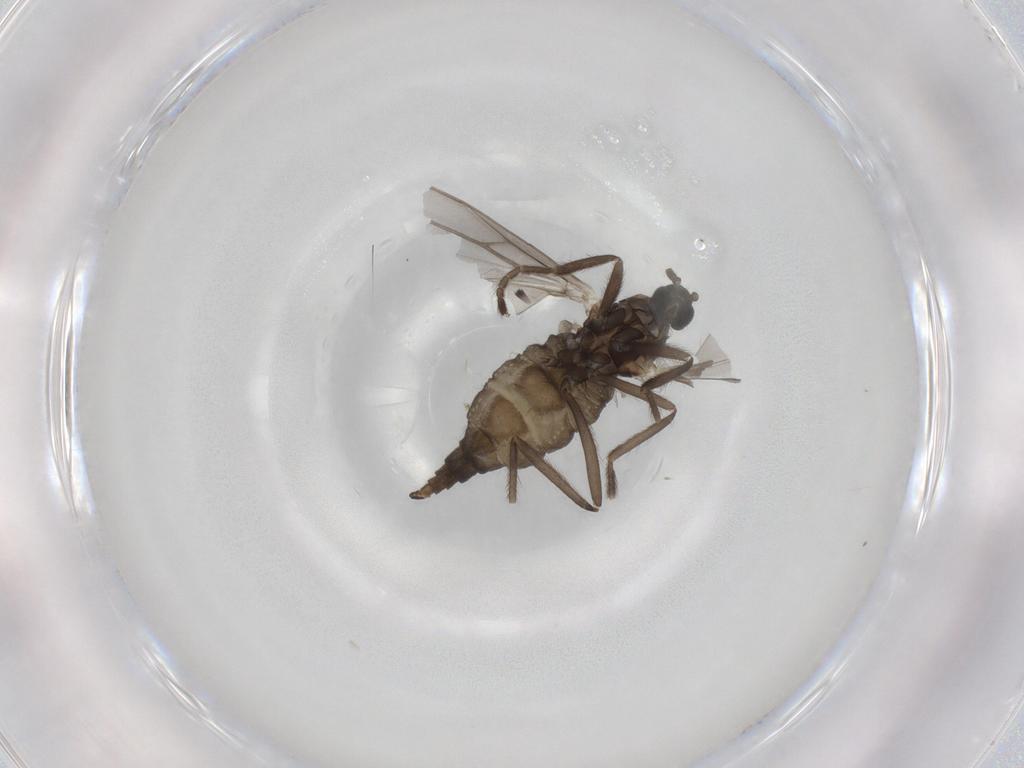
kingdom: Animalia
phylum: Arthropoda
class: Insecta
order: Diptera
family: Cecidomyiidae
